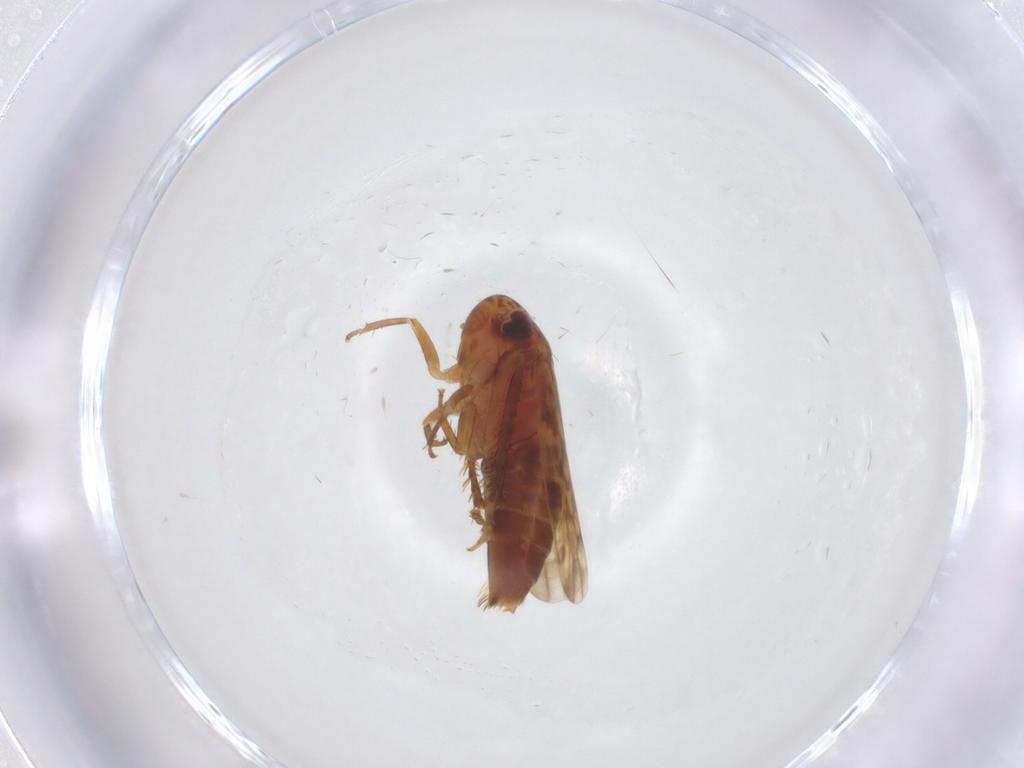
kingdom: Animalia
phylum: Arthropoda
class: Insecta
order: Hemiptera
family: Cicadellidae
